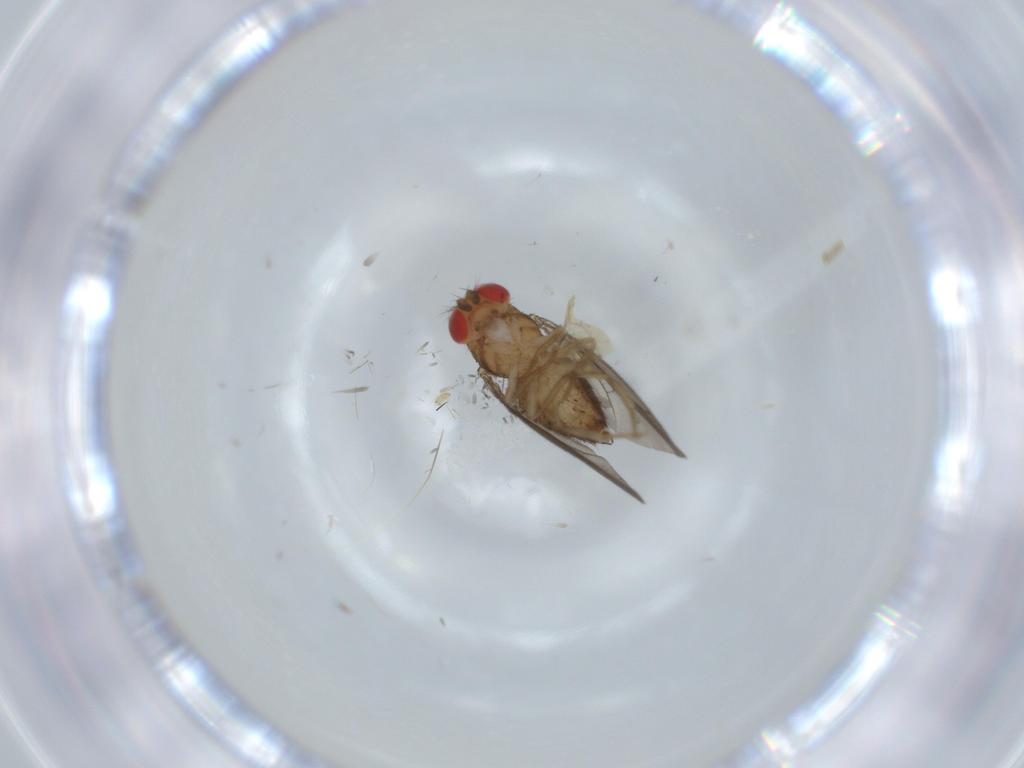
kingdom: Animalia
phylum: Arthropoda
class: Insecta
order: Diptera
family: Drosophilidae
